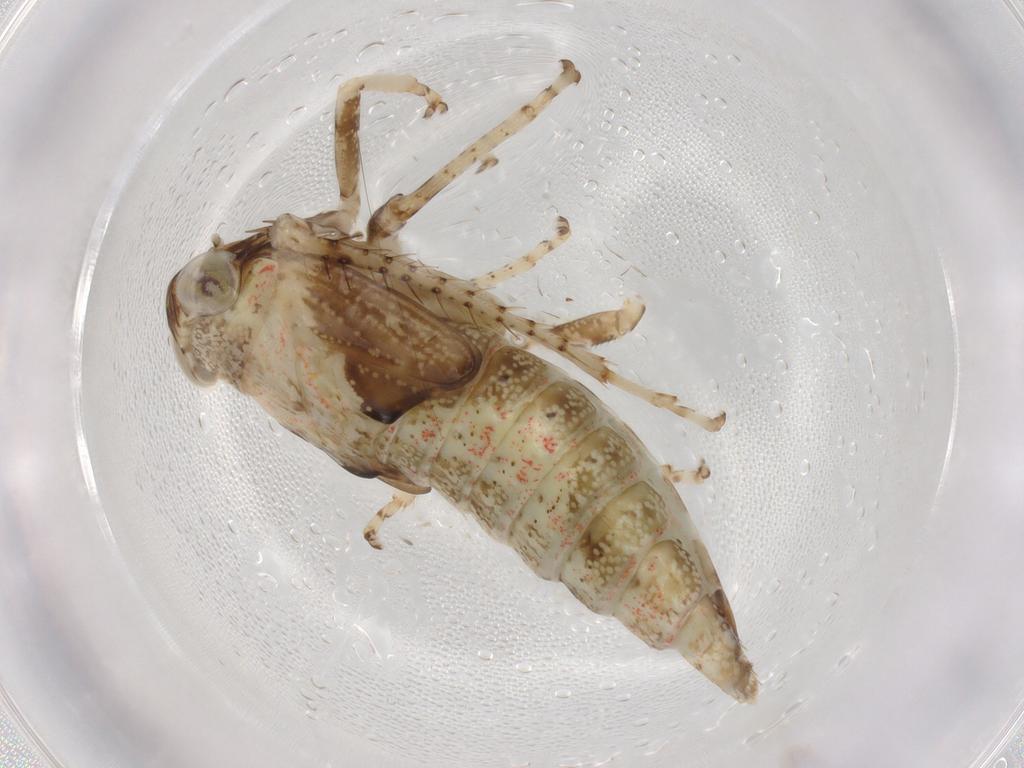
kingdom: Animalia
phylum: Arthropoda
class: Insecta
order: Hemiptera
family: Cicadellidae
